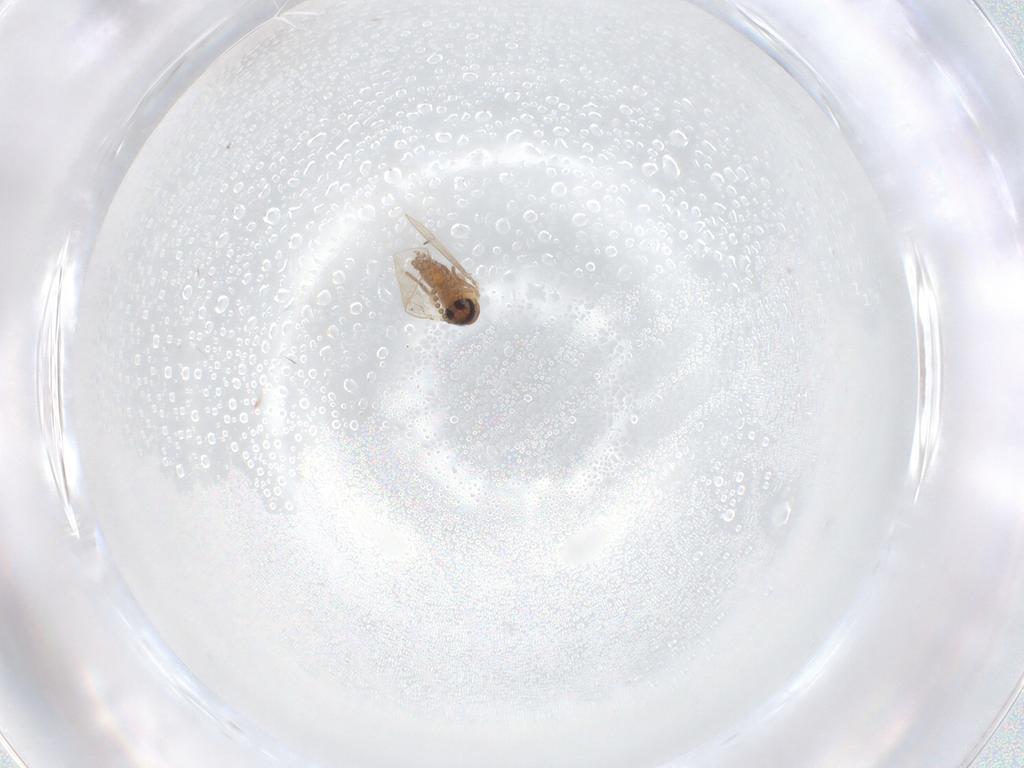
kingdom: Animalia
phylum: Arthropoda
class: Insecta
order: Diptera
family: Psychodidae
